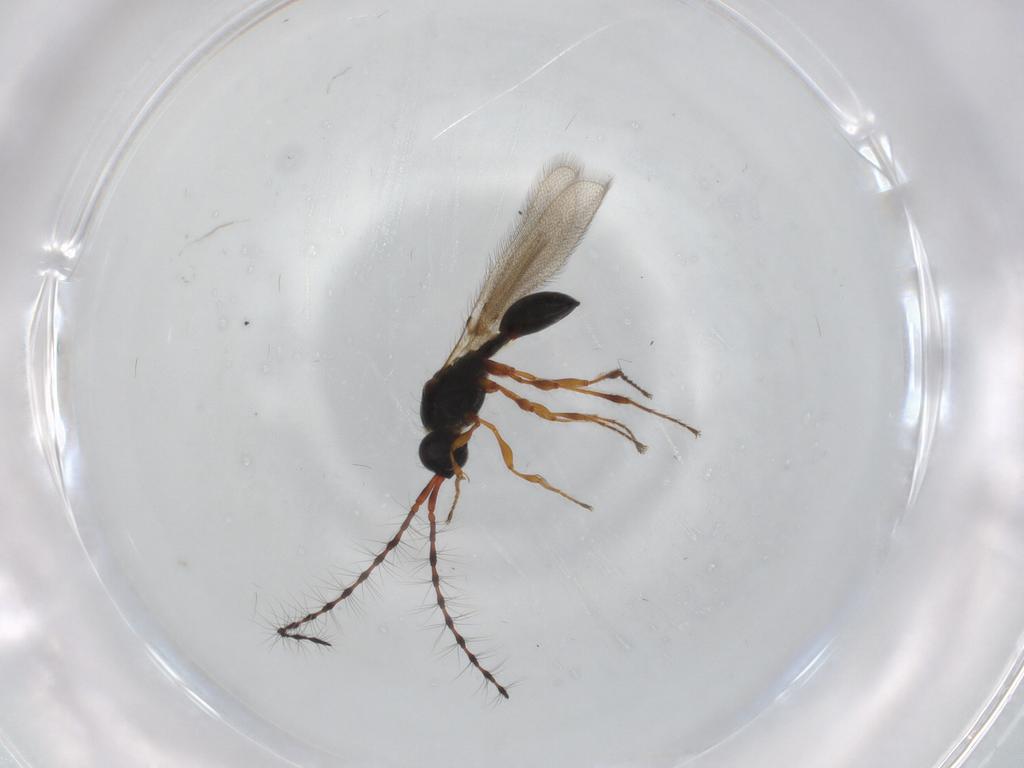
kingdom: Animalia
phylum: Arthropoda
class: Insecta
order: Hymenoptera
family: Diapriidae
